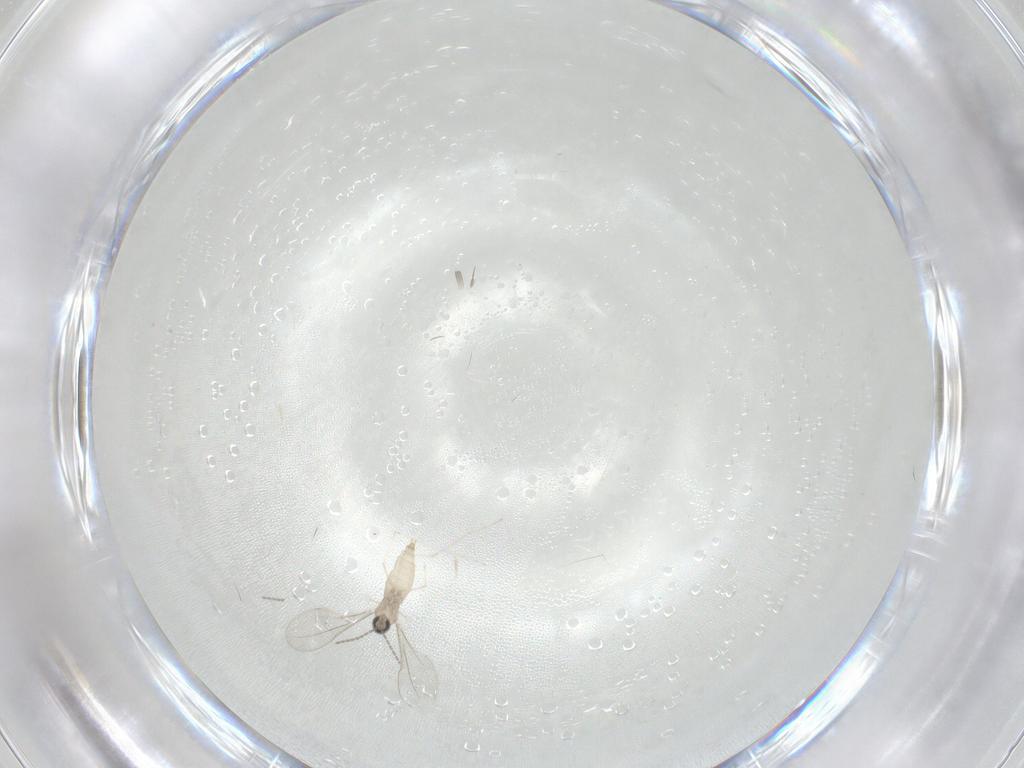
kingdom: Animalia
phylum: Arthropoda
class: Insecta
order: Diptera
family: Cecidomyiidae
